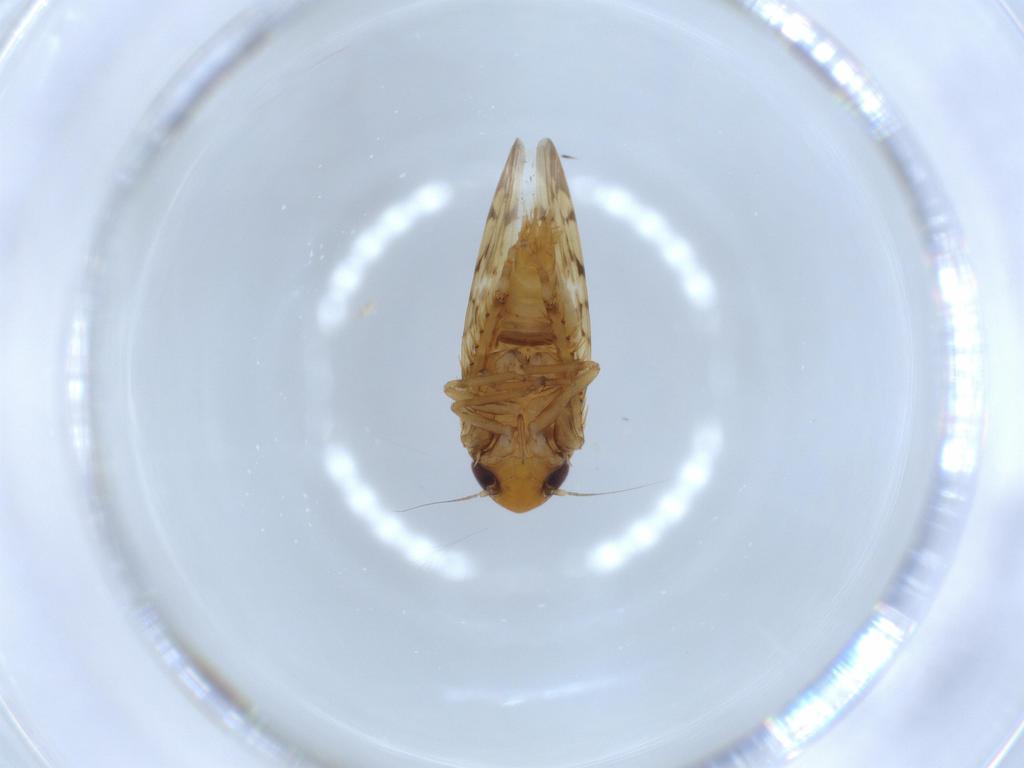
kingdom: Animalia
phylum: Arthropoda
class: Insecta
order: Hemiptera
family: Cicadellidae
